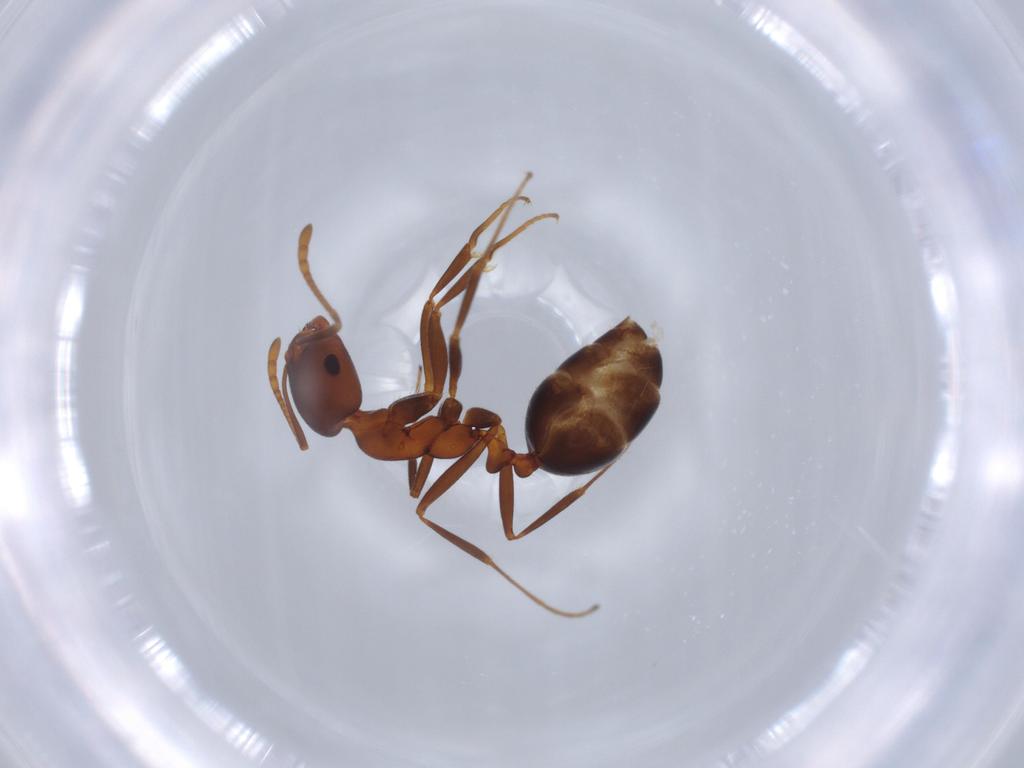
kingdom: Animalia
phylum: Arthropoda
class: Insecta
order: Hymenoptera
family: Formicidae
